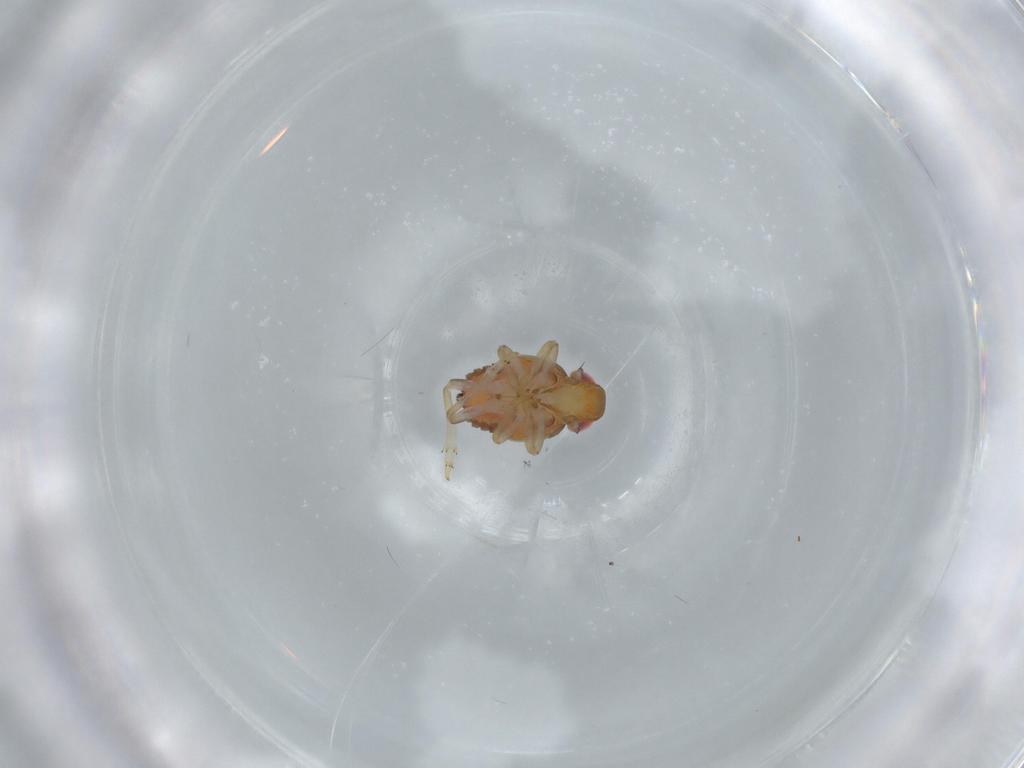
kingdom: Animalia
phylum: Arthropoda
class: Insecta
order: Hemiptera
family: Issidae
